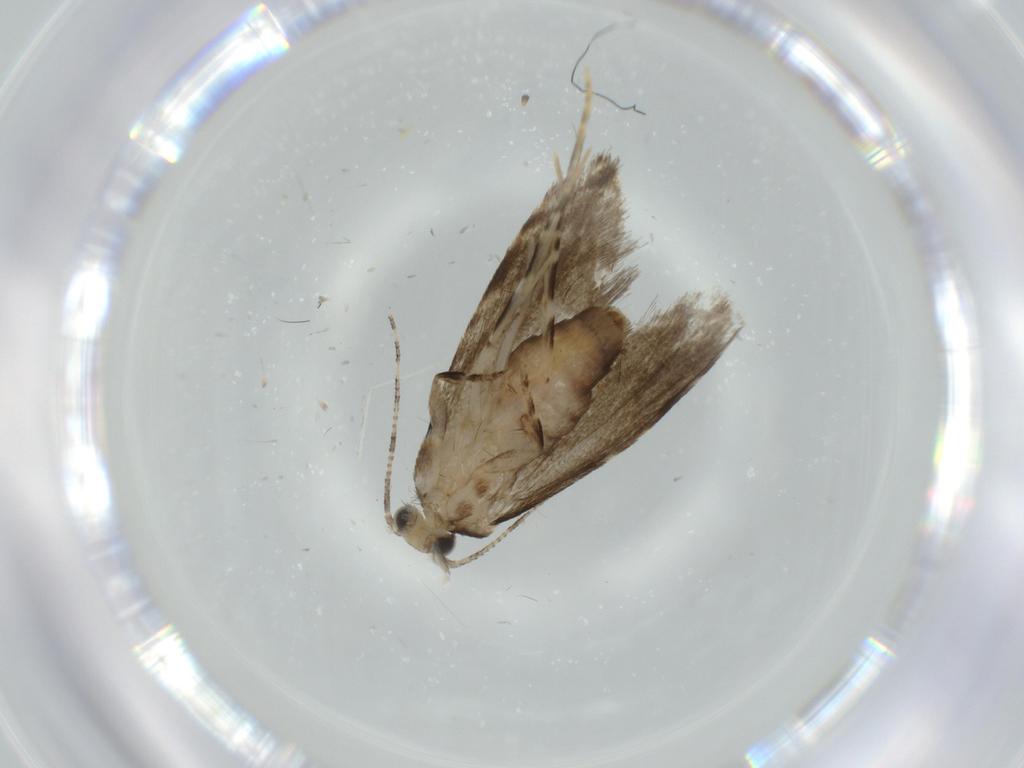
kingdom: Animalia
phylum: Arthropoda
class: Insecta
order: Lepidoptera
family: Tineidae
